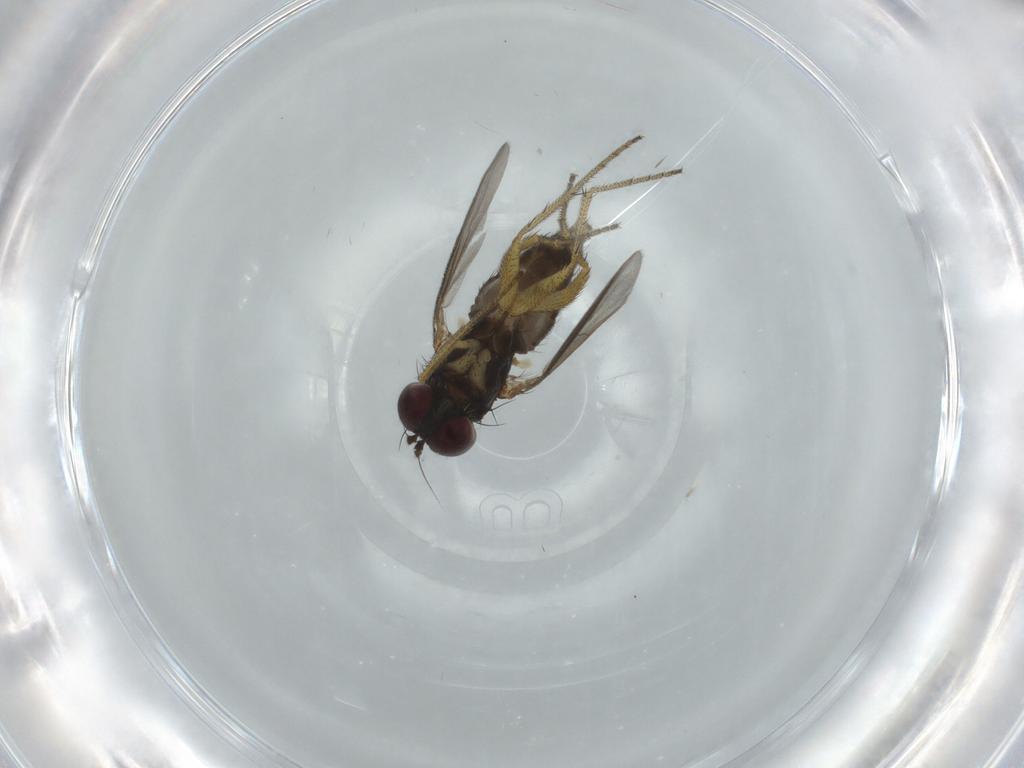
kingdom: Animalia
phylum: Arthropoda
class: Insecta
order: Diptera
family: Dolichopodidae
